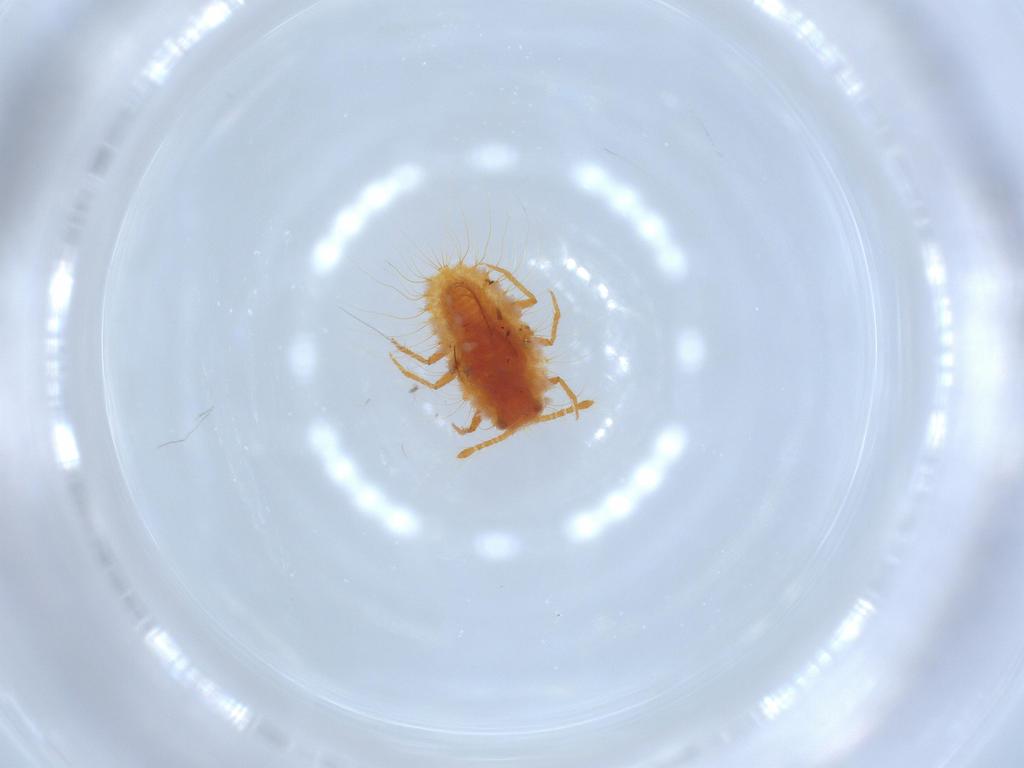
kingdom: Animalia
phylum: Arthropoda
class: Insecta
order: Hemiptera
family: Coccoidea_incertae_sedis
